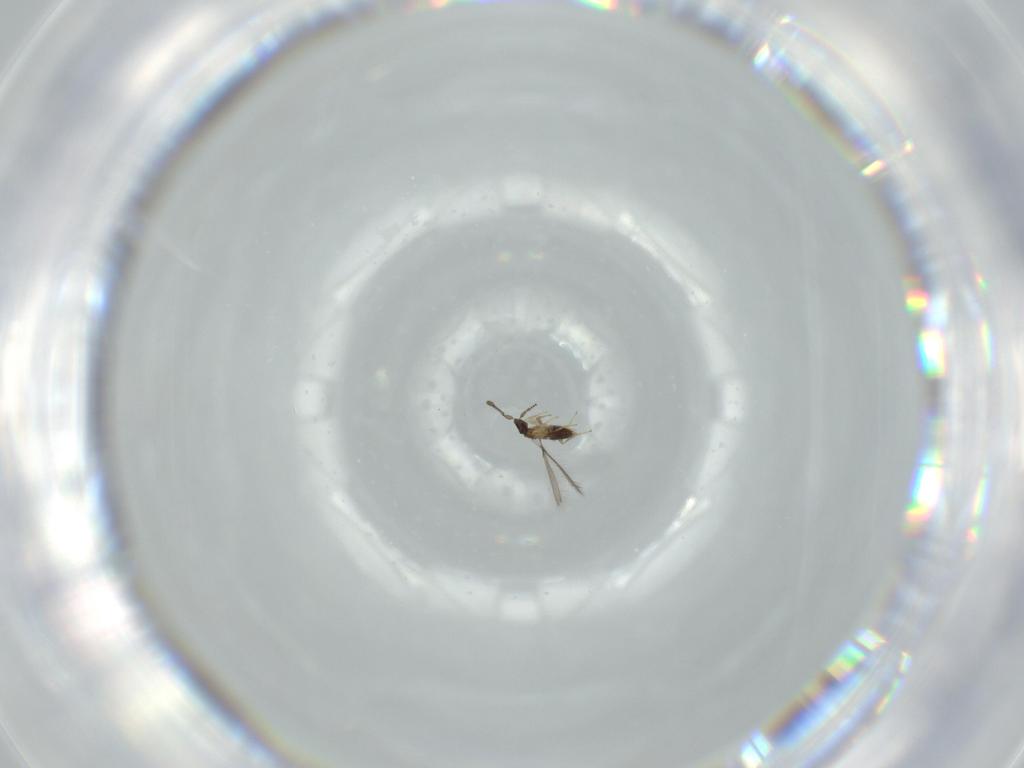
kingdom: Animalia
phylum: Arthropoda
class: Insecta
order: Hymenoptera
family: Mymaridae
